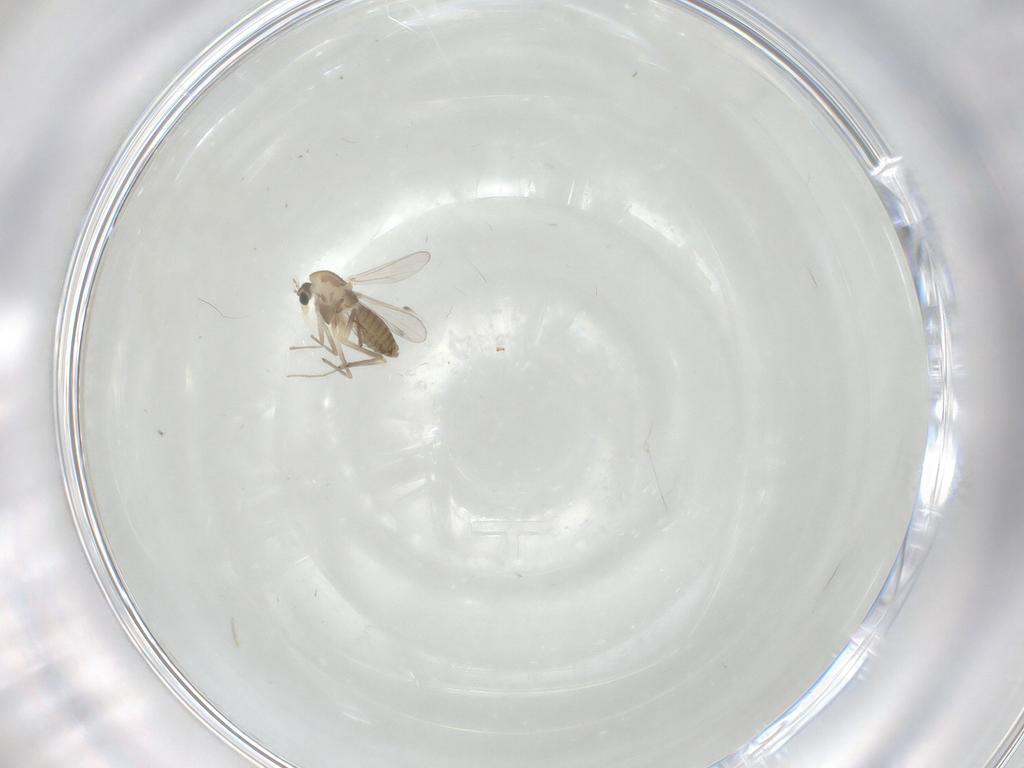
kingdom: Animalia
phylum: Arthropoda
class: Insecta
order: Diptera
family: Chironomidae
